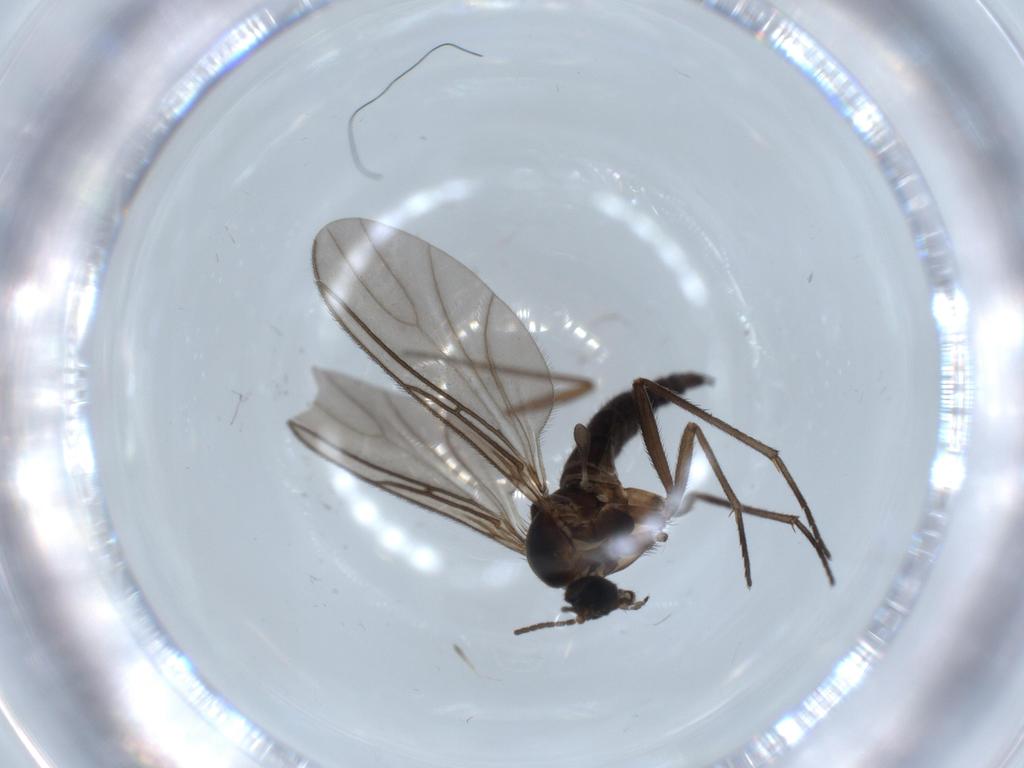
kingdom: Animalia
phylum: Arthropoda
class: Insecta
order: Diptera
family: Sciaridae
